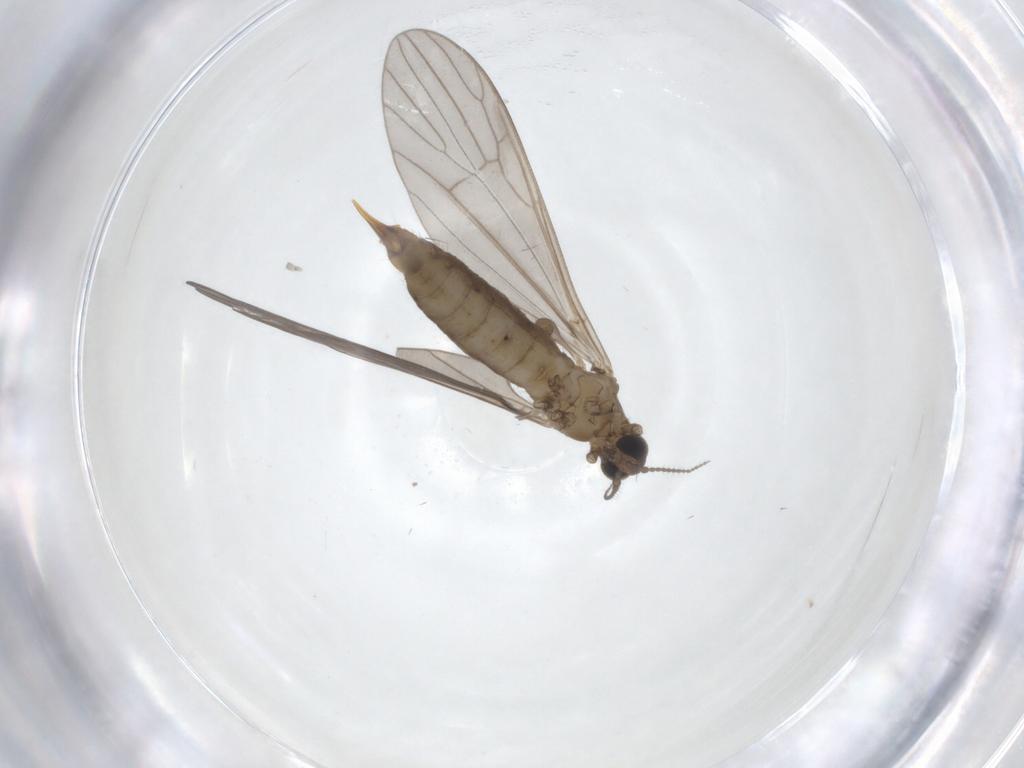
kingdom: Animalia
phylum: Arthropoda
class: Insecta
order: Diptera
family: Limoniidae
